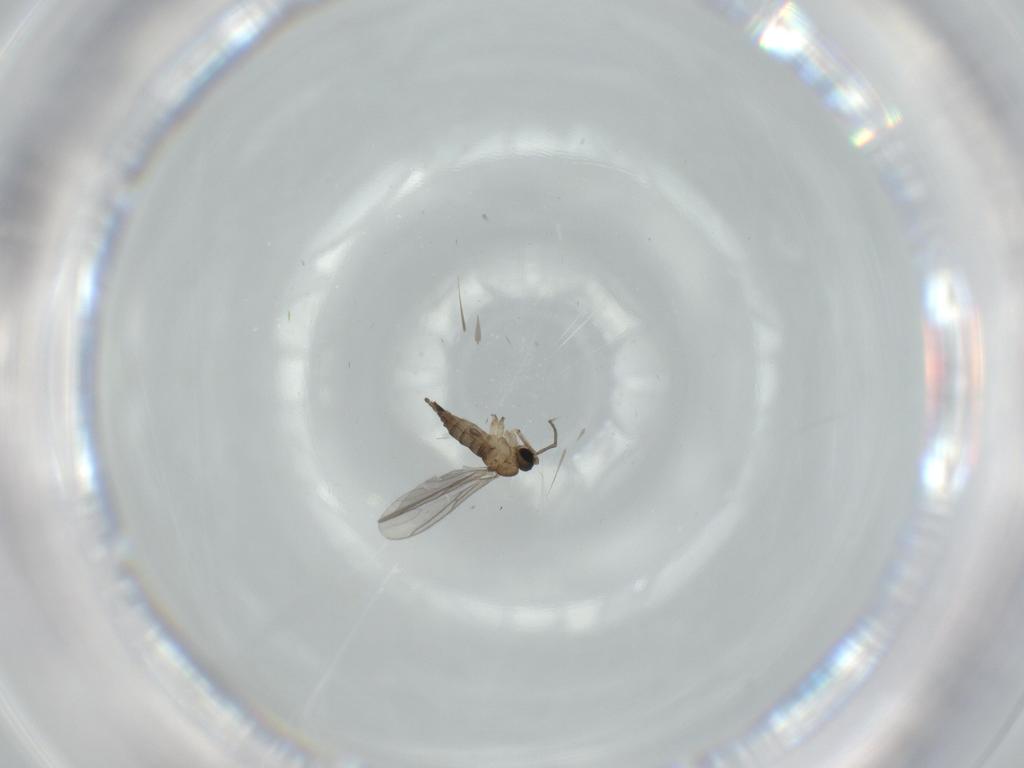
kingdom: Animalia
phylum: Arthropoda
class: Insecta
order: Diptera
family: Sciaridae
